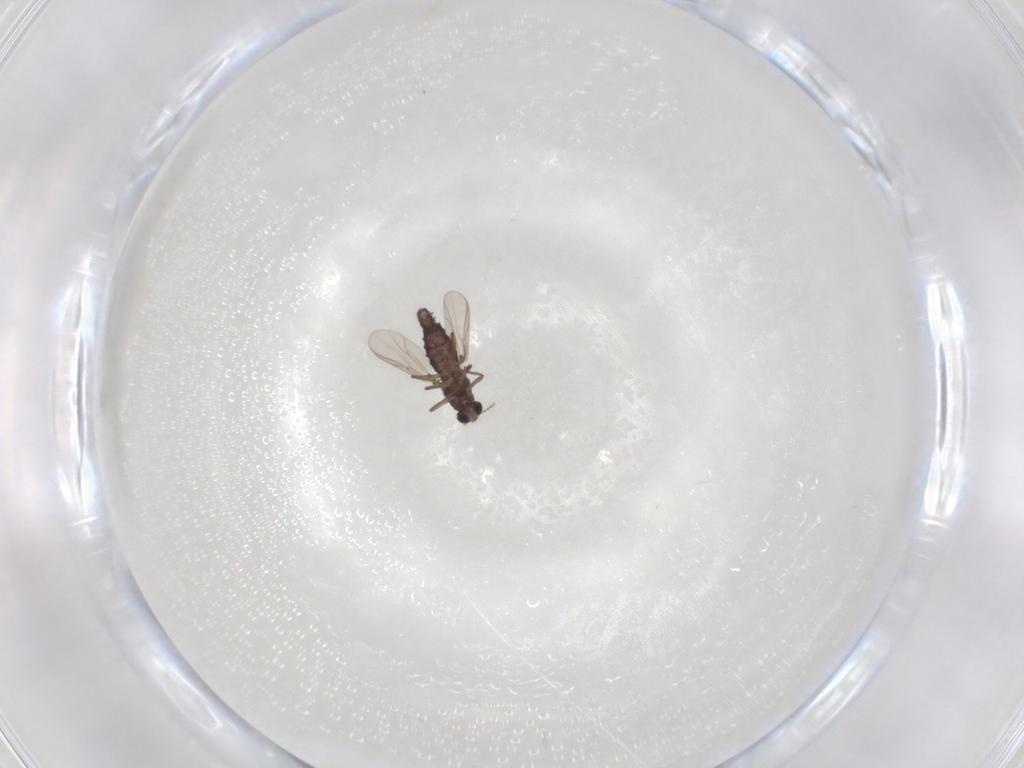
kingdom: Animalia
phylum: Arthropoda
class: Insecta
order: Diptera
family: Chironomidae
